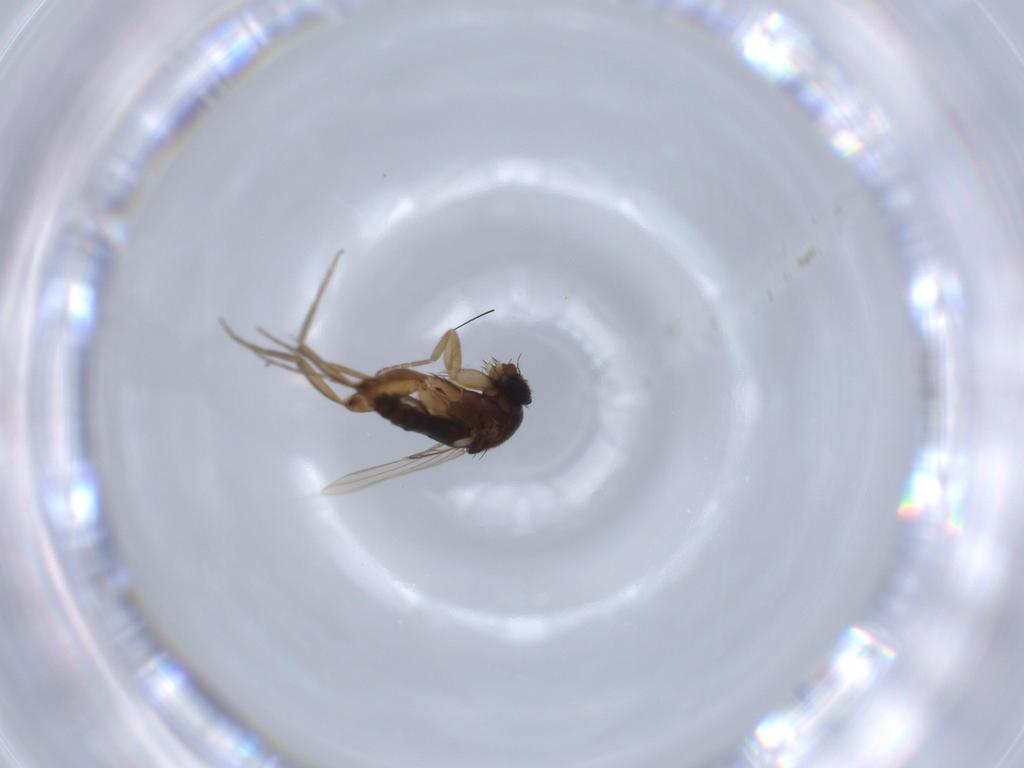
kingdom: Animalia
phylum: Arthropoda
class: Insecta
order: Diptera
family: Phoridae
